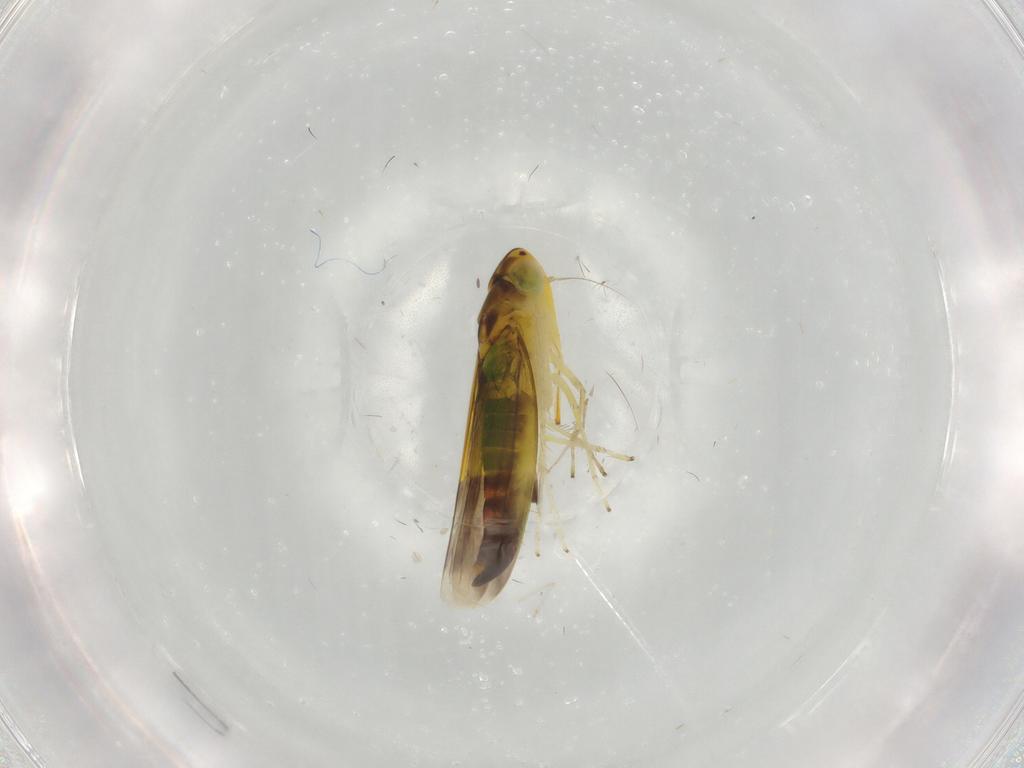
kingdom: Animalia
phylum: Arthropoda
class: Insecta
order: Hemiptera
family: Cicadellidae
